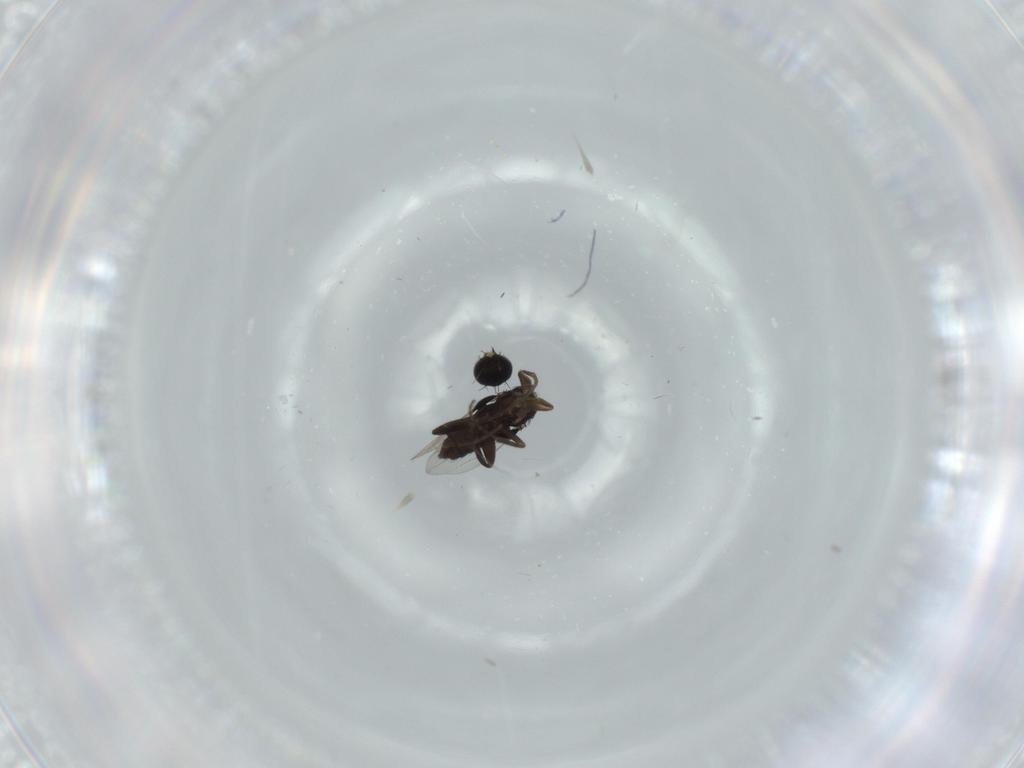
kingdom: Animalia
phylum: Arthropoda
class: Insecta
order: Diptera
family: Phoridae
